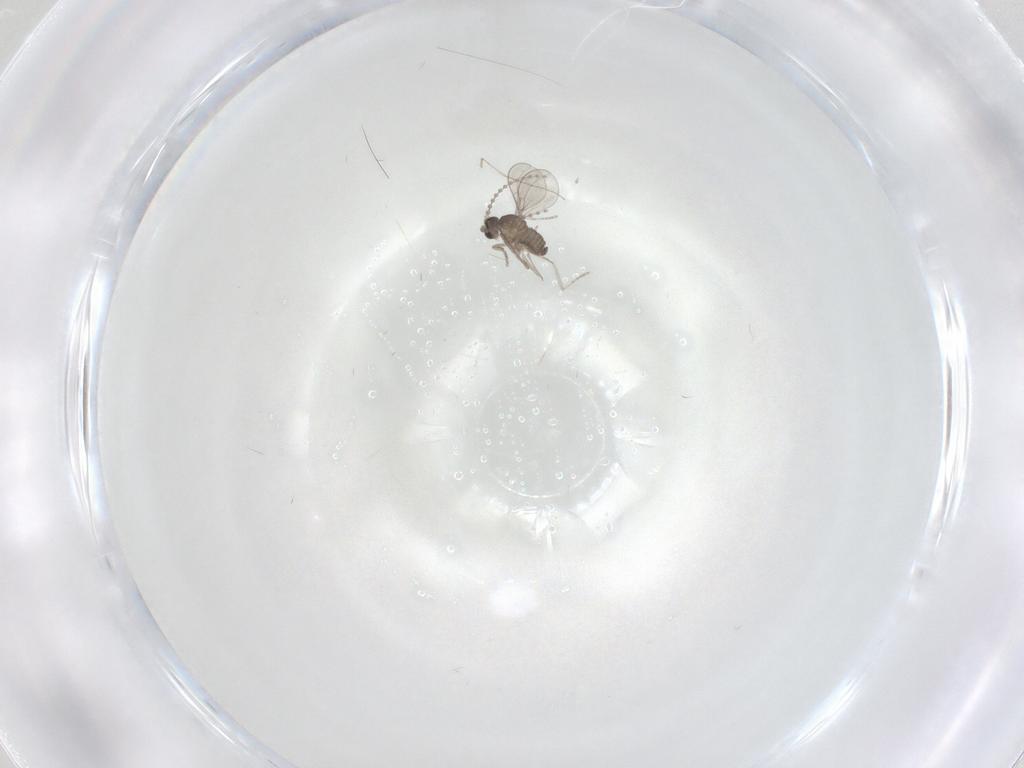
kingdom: Animalia
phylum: Arthropoda
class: Insecta
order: Diptera
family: Cecidomyiidae
